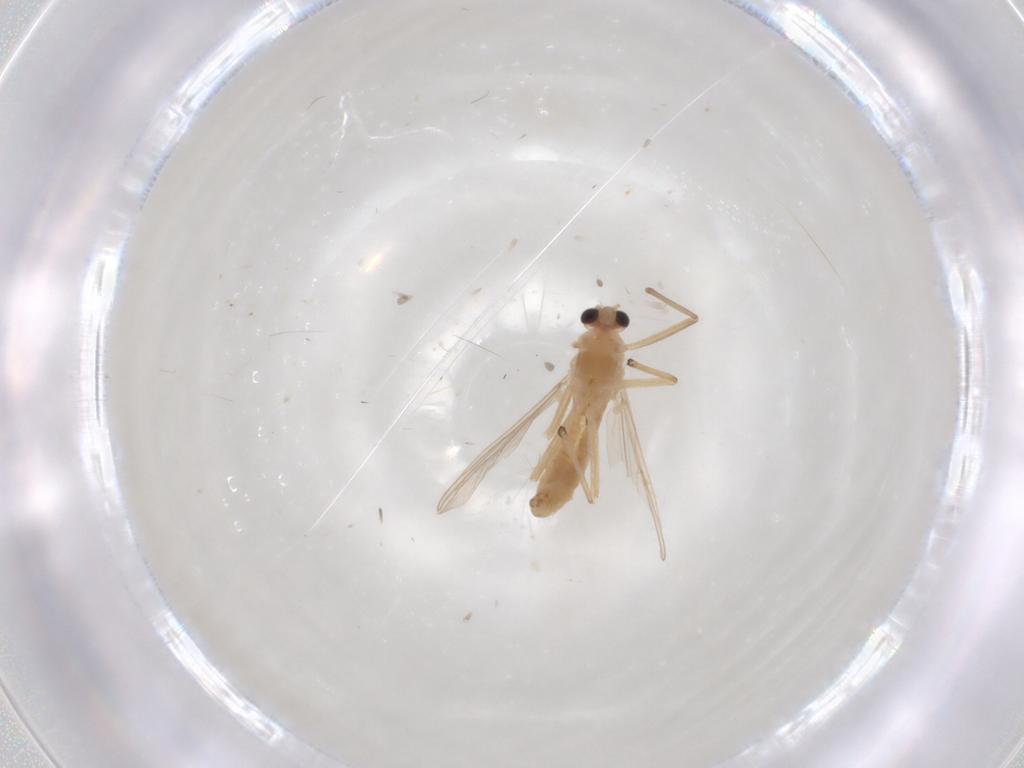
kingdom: Animalia
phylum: Arthropoda
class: Insecta
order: Diptera
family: Chironomidae
